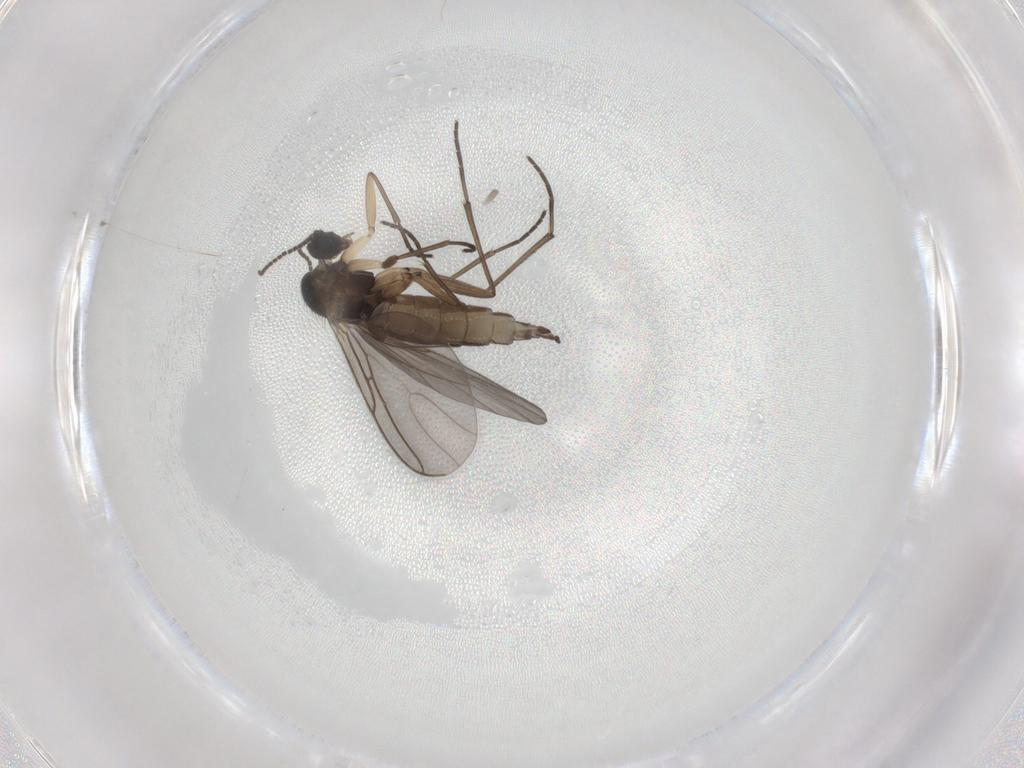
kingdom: Animalia
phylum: Arthropoda
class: Insecta
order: Diptera
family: Sciaridae
